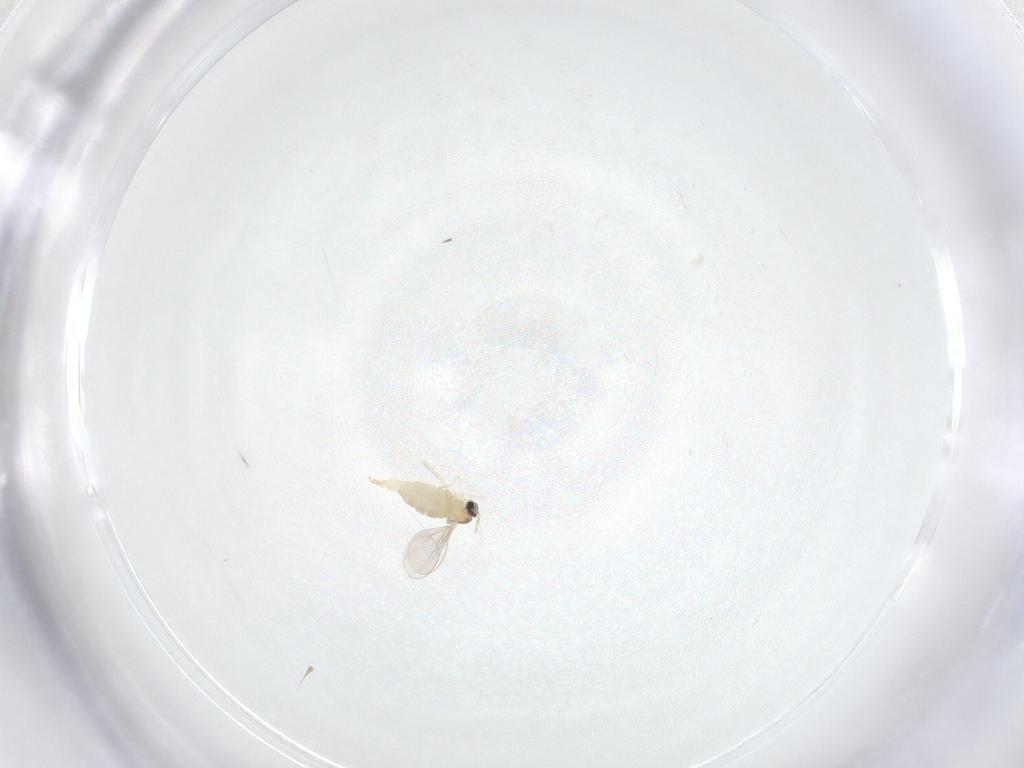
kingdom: Animalia
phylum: Arthropoda
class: Insecta
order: Diptera
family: Cecidomyiidae
